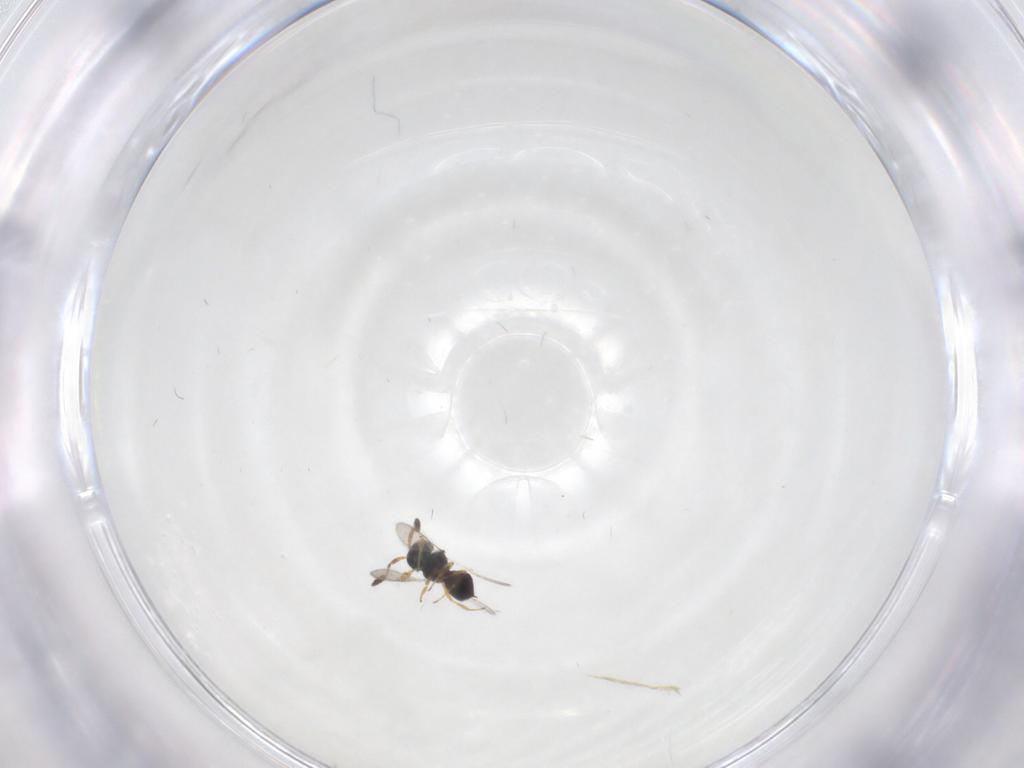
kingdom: Animalia
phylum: Arthropoda
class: Insecta
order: Hymenoptera
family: Scelionidae
